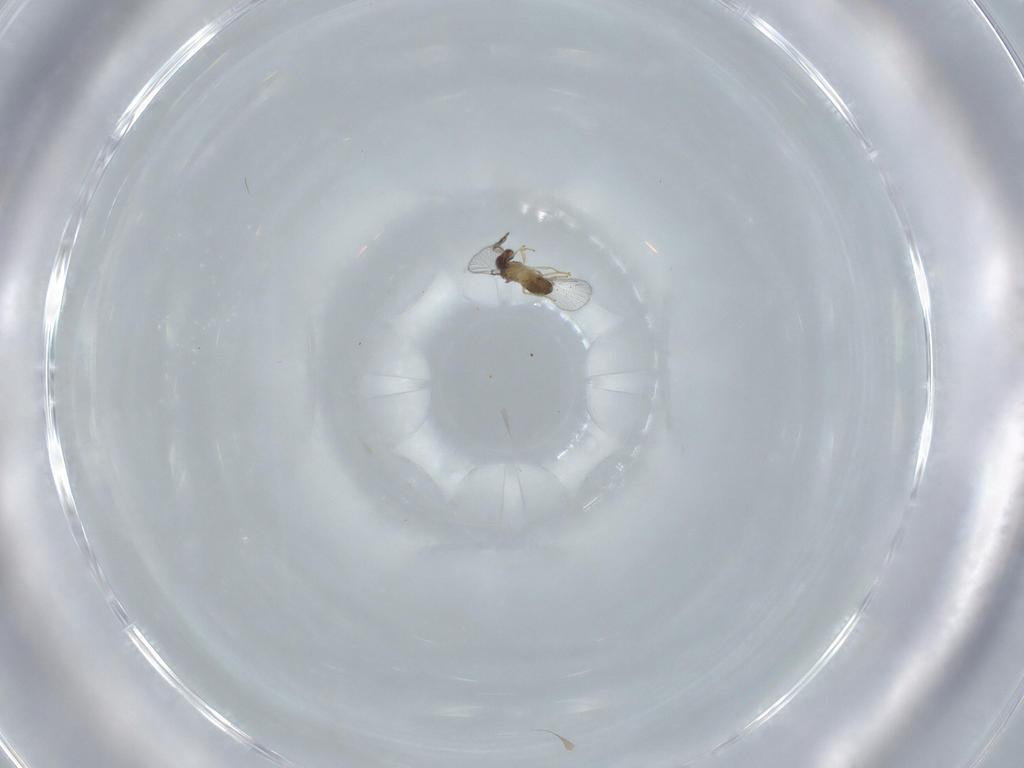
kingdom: Animalia
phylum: Arthropoda
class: Insecta
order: Hymenoptera
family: Trichogrammatidae
